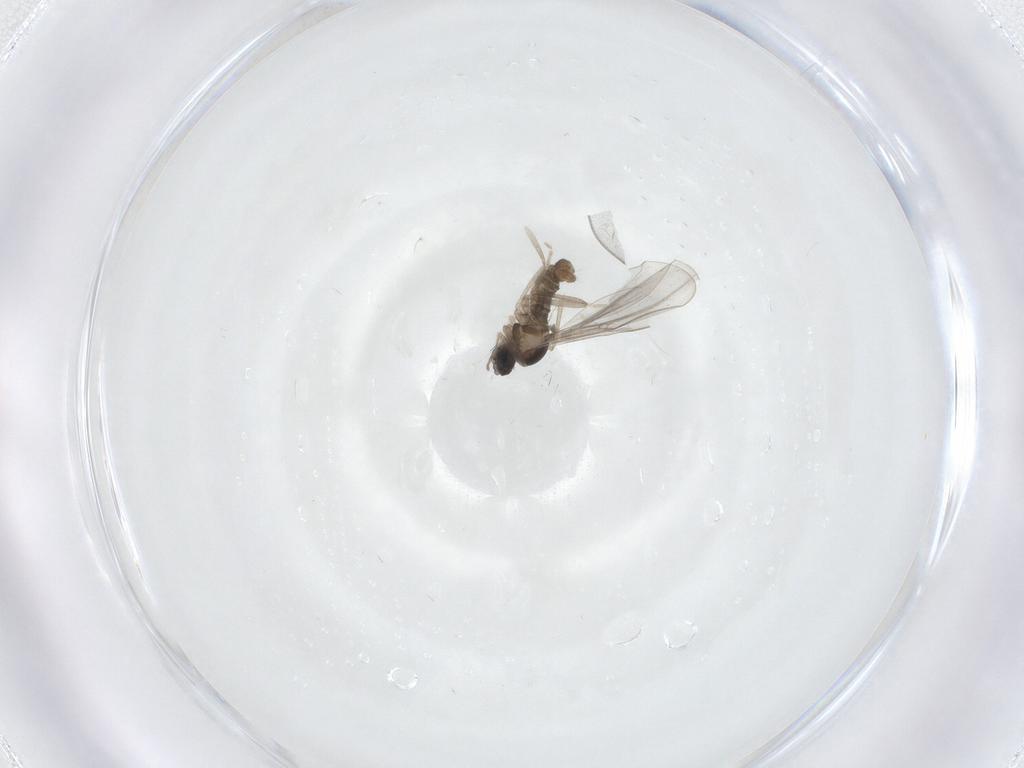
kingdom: Animalia
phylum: Arthropoda
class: Insecta
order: Diptera
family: Cecidomyiidae
